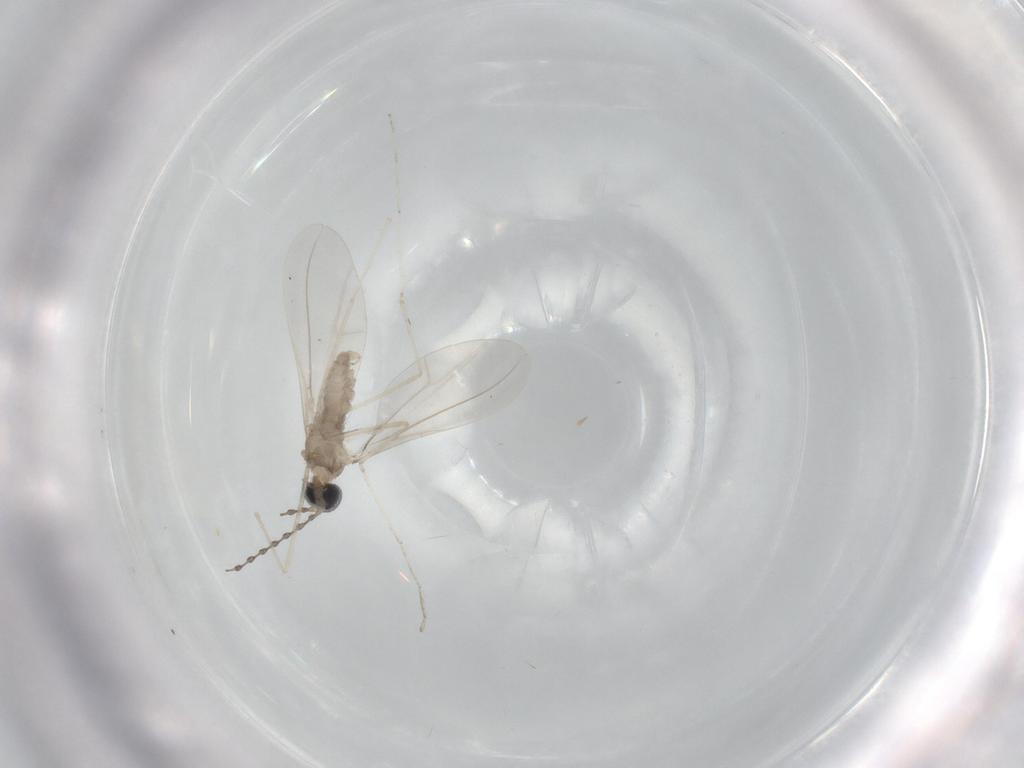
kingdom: Animalia
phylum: Arthropoda
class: Insecta
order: Diptera
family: Cecidomyiidae
